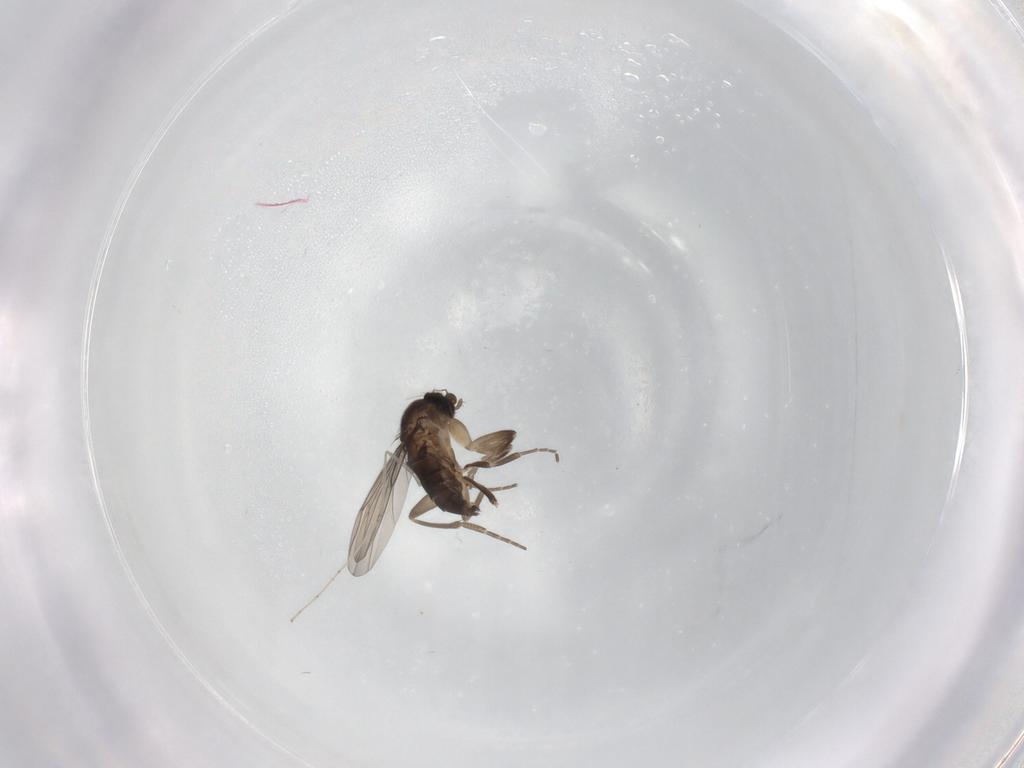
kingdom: Animalia
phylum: Arthropoda
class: Insecta
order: Diptera
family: Cecidomyiidae
